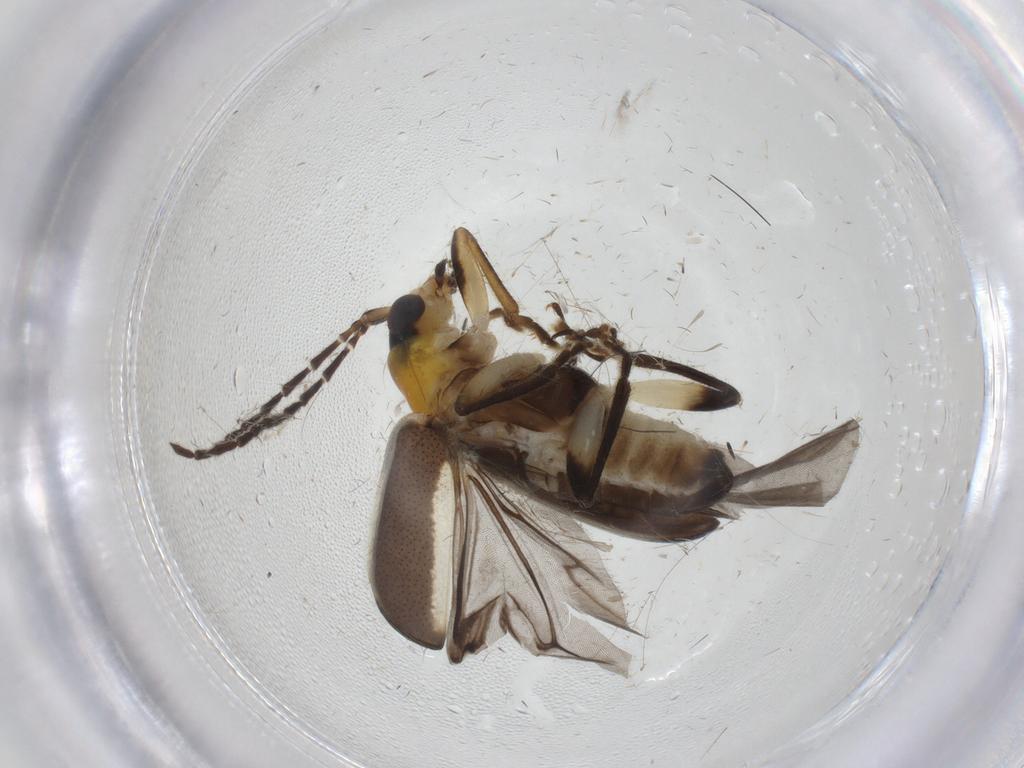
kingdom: Animalia
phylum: Arthropoda
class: Insecta
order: Coleoptera
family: Chrysomelidae
